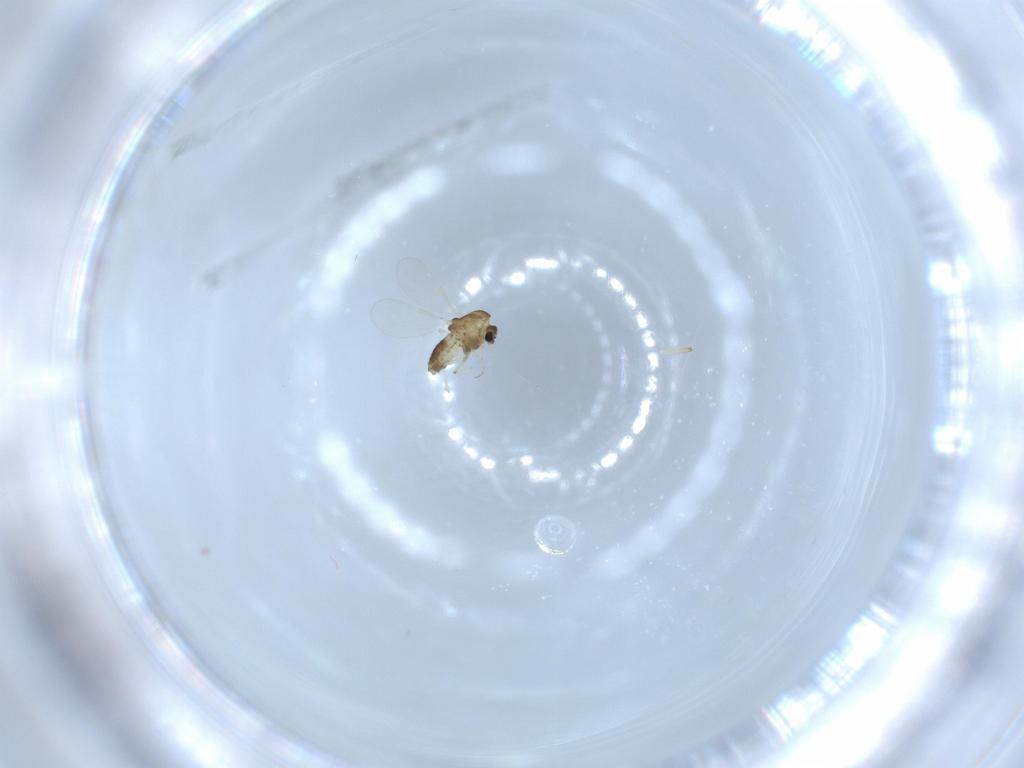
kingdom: Animalia
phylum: Arthropoda
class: Insecta
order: Diptera
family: Chironomidae
